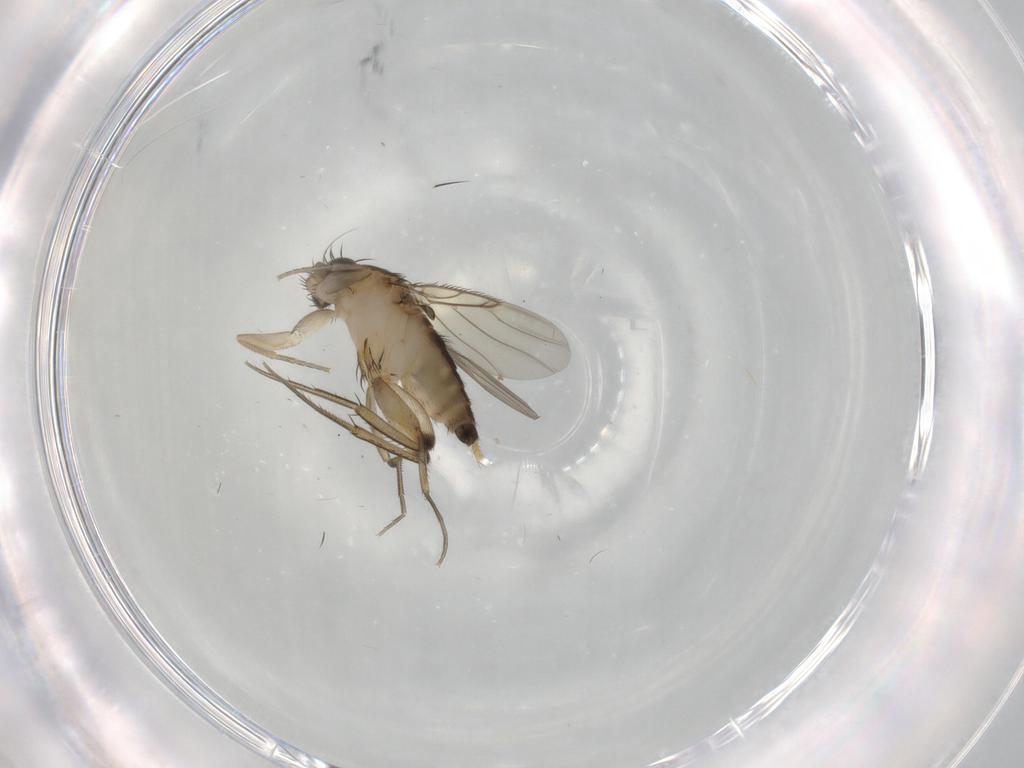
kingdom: Animalia
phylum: Arthropoda
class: Insecta
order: Diptera
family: Phoridae
